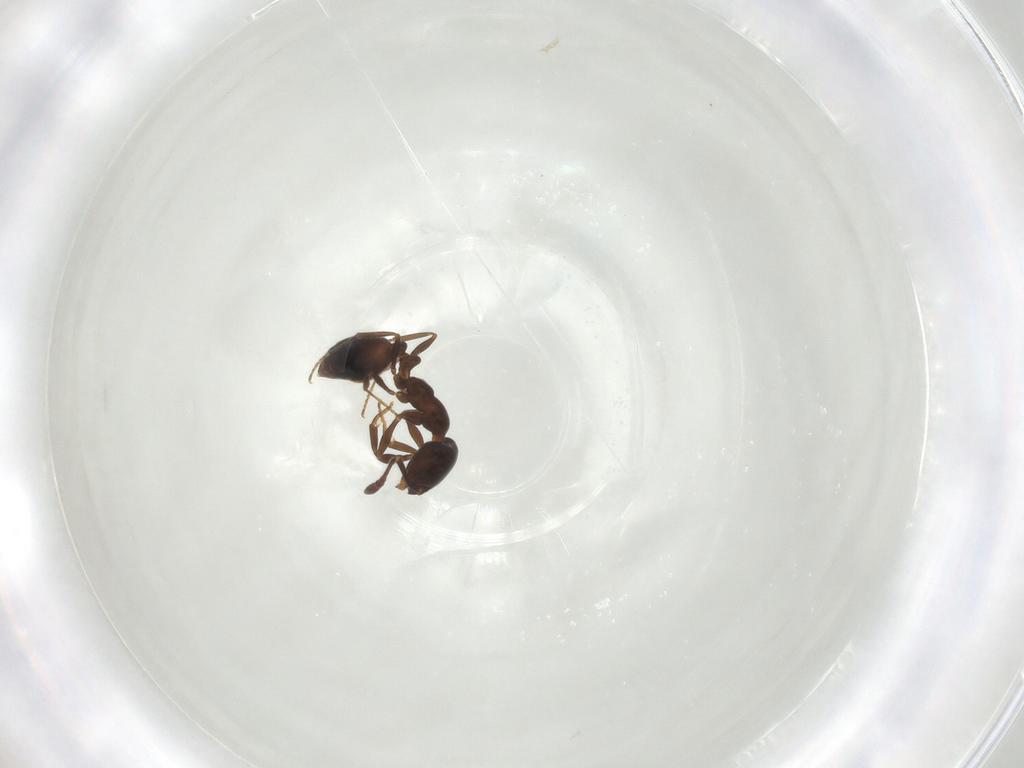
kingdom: Animalia
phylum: Arthropoda
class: Insecta
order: Hymenoptera
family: Formicidae
